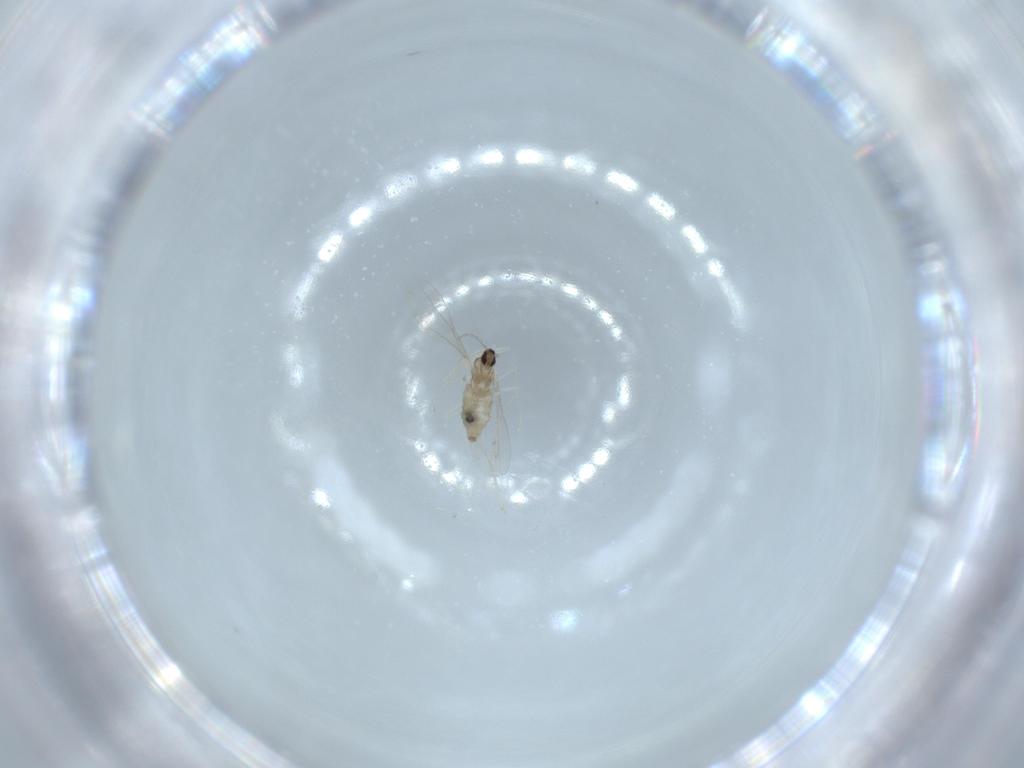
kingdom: Animalia
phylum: Arthropoda
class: Insecta
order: Diptera
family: Cecidomyiidae
